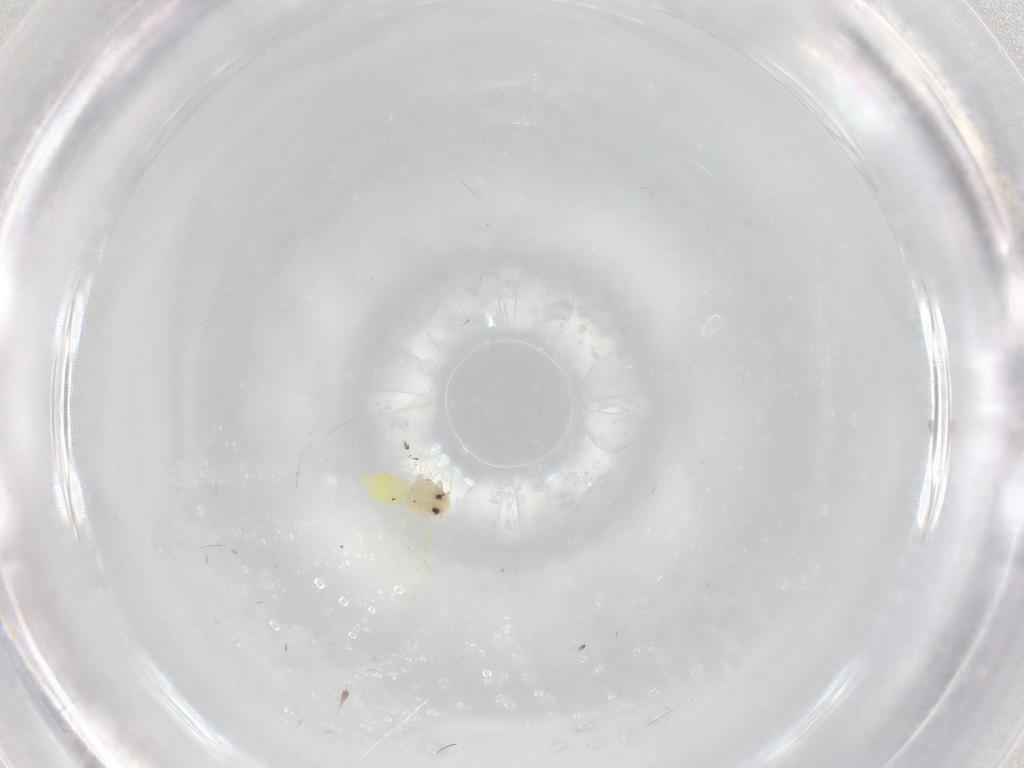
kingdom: Animalia
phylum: Arthropoda
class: Insecta
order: Hemiptera
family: Aleyrodidae
